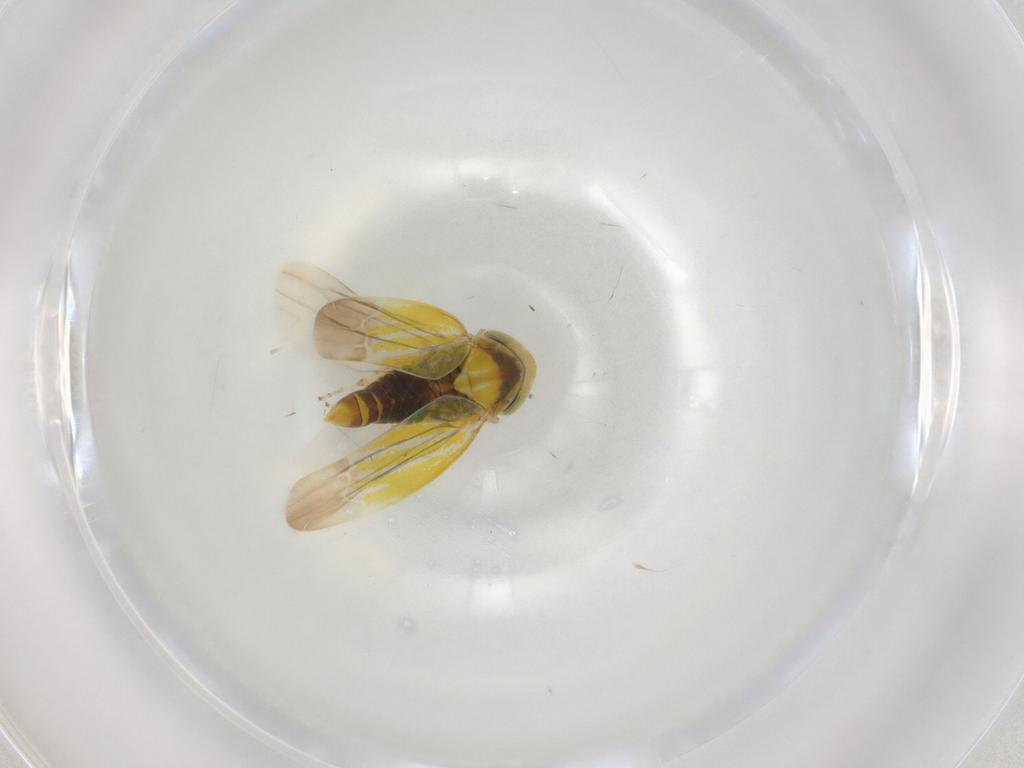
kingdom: Animalia
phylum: Arthropoda
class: Insecta
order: Hemiptera
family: Cicadellidae
